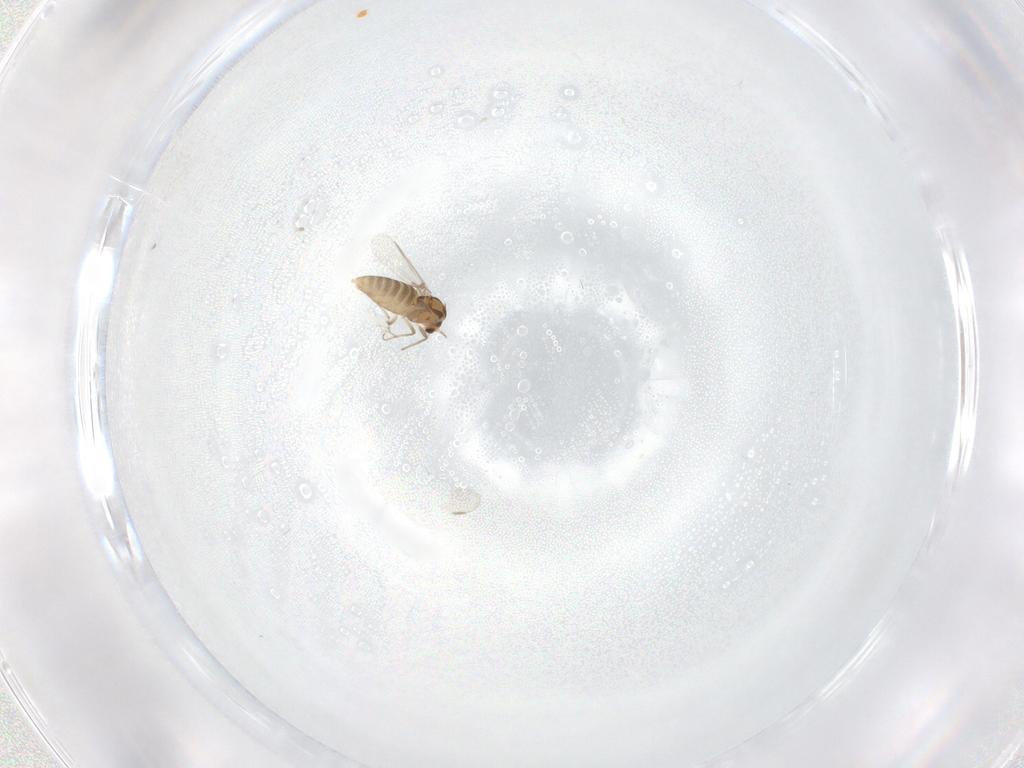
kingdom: Animalia
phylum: Arthropoda
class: Insecta
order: Diptera
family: Chironomidae
